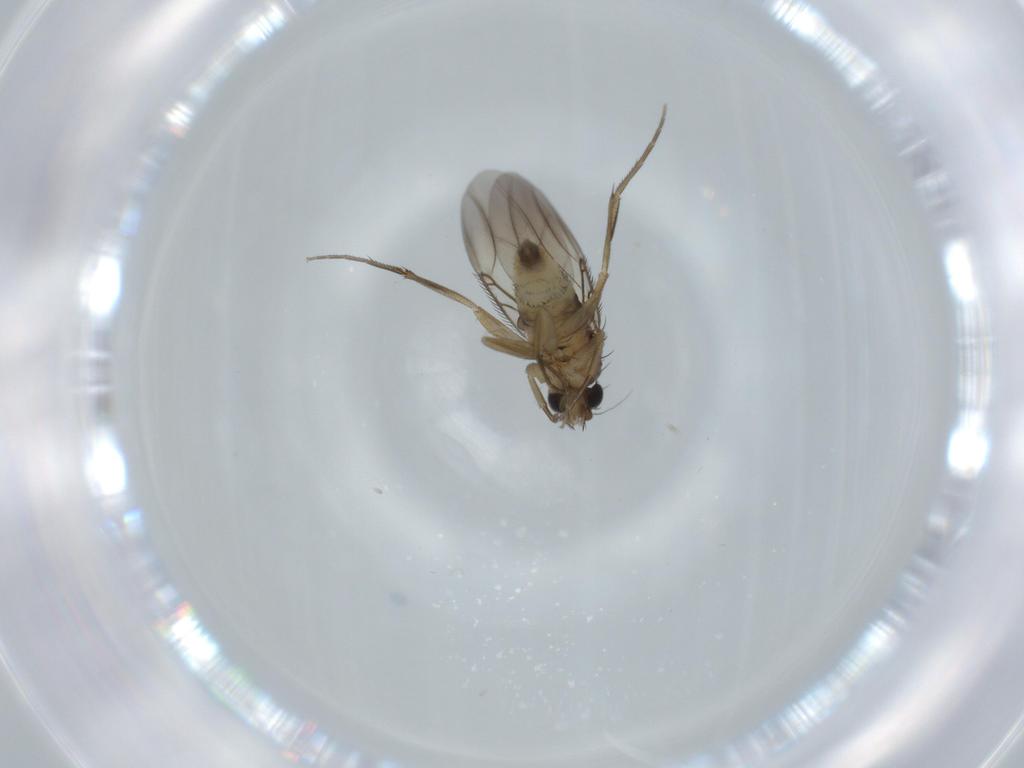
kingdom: Animalia
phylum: Arthropoda
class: Insecta
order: Diptera
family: Phoridae
